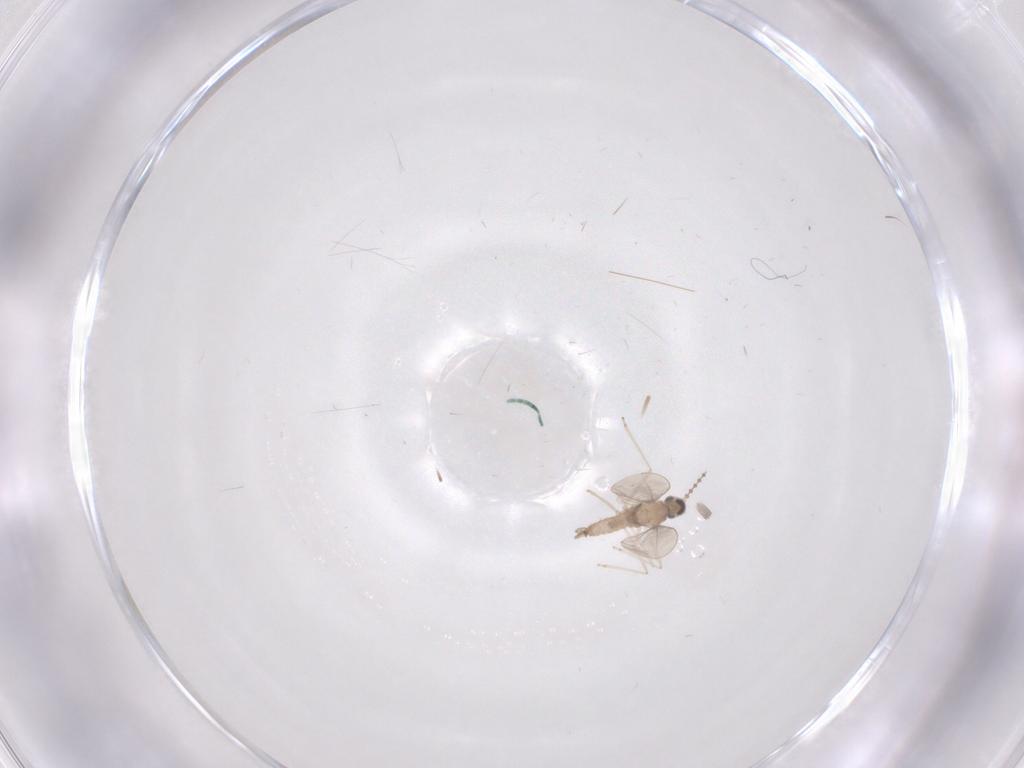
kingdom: Animalia
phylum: Arthropoda
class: Insecta
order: Diptera
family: Cecidomyiidae
